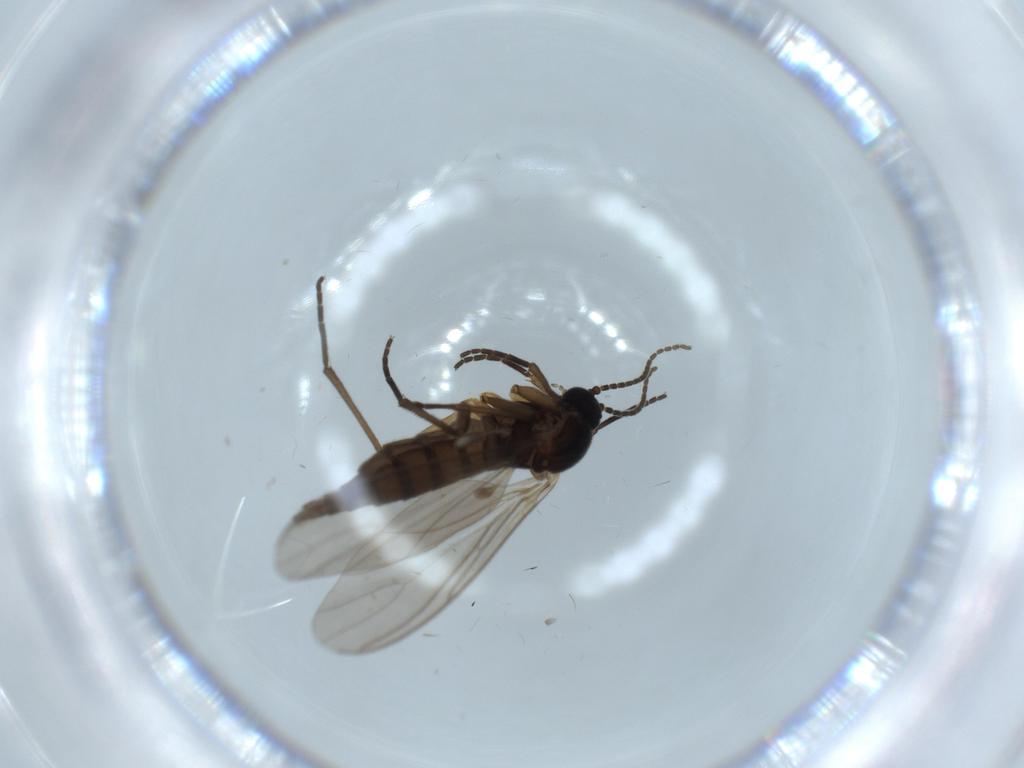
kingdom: Animalia
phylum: Arthropoda
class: Insecta
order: Diptera
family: Sciaridae
